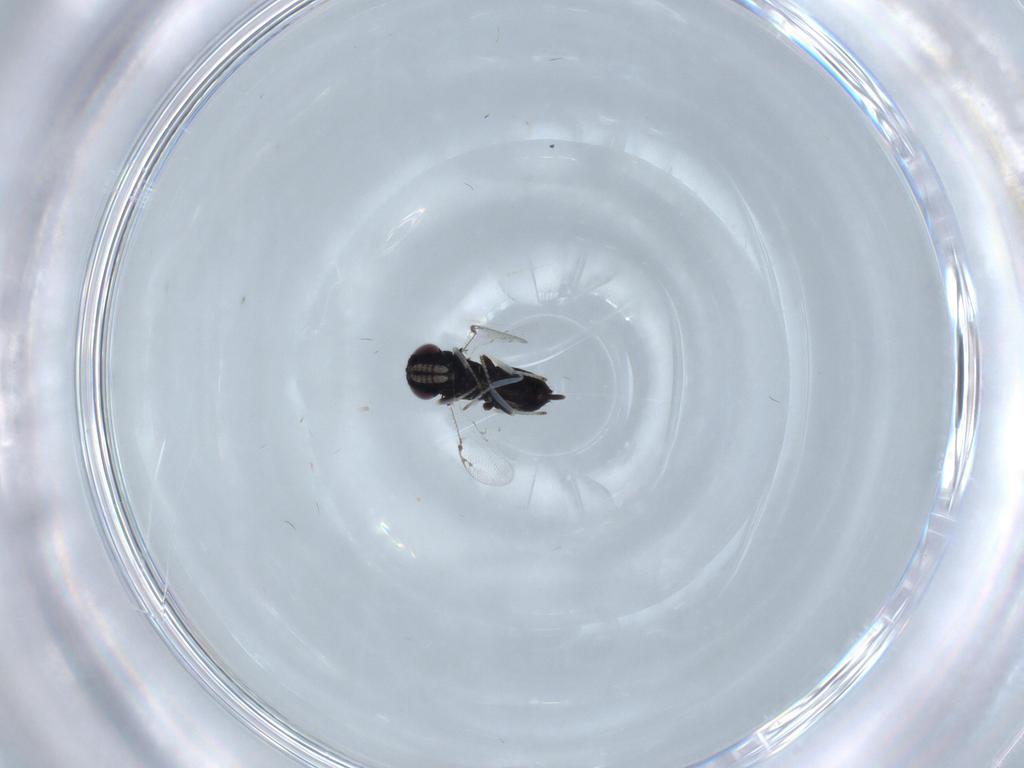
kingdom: Animalia
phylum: Arthropoda
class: Insecta
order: Hymenoptera
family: Pirenidae
